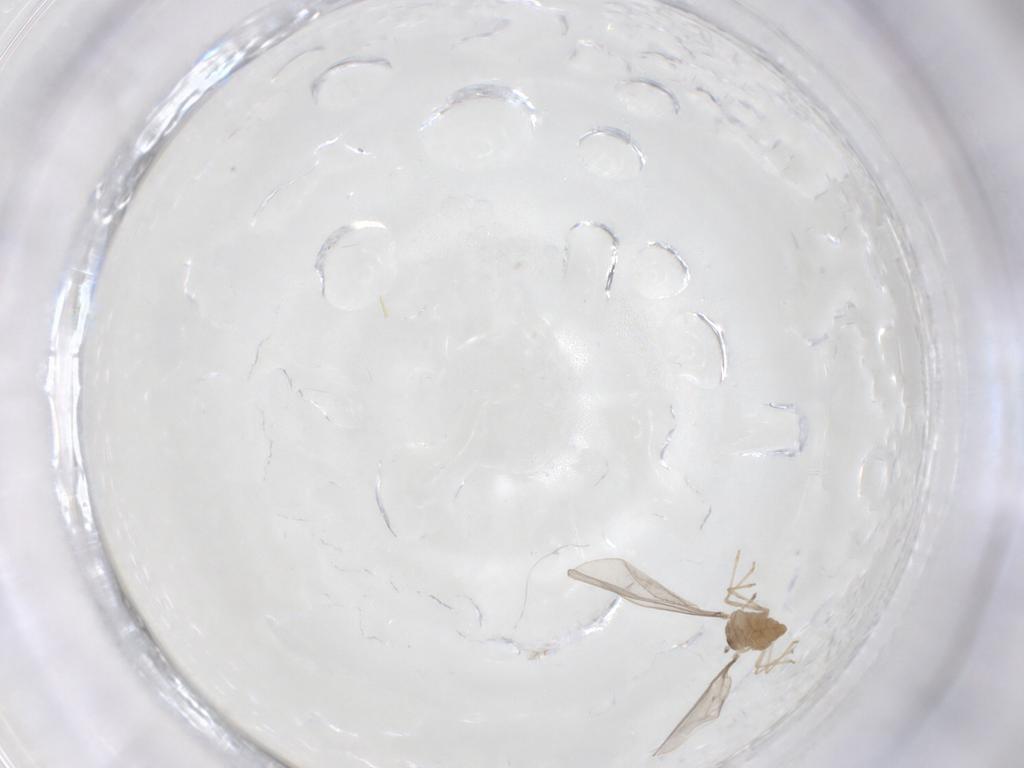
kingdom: Animalia
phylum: Arthropoda
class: Insecta
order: Diptera
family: Cecidomyiidae
